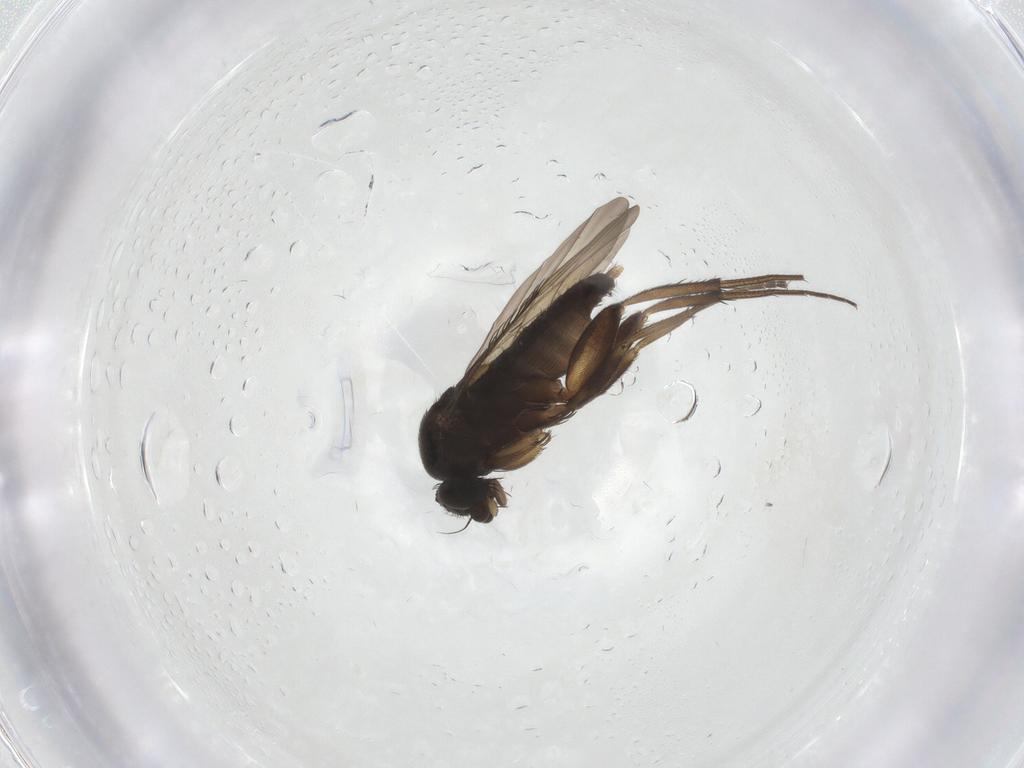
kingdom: Animalia
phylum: Arthropoda
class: Insecta
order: Diptera
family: Phoridae
